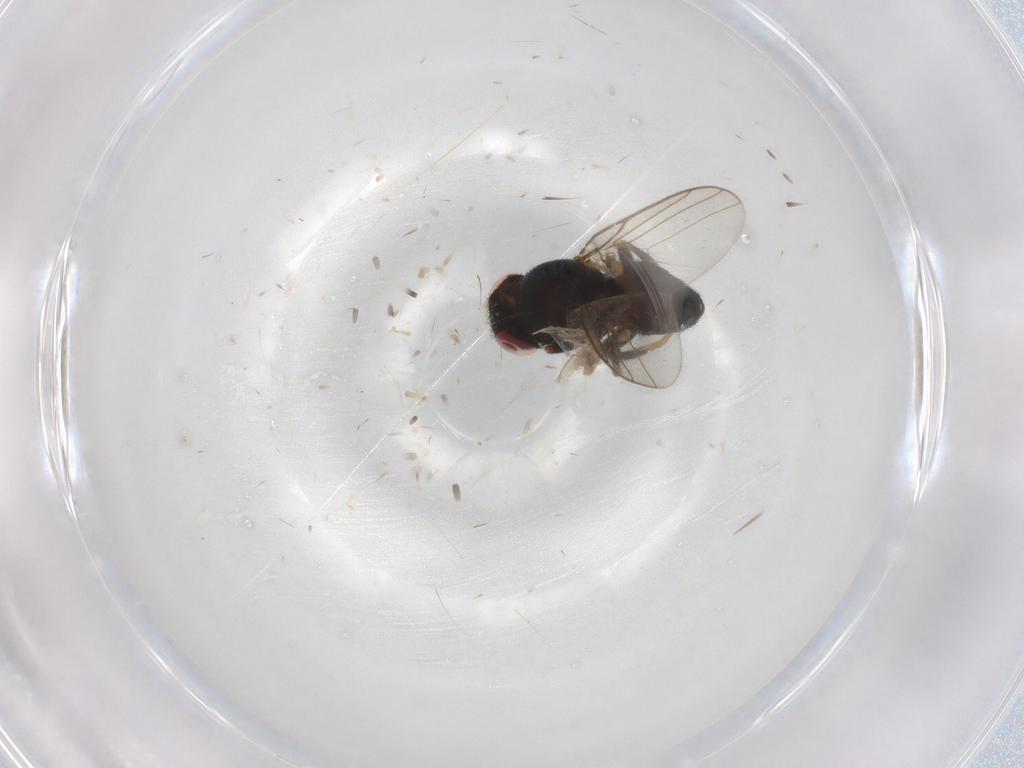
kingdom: Animalia
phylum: Arthropoda
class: Insecta
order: Diptera
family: Chloropidae
